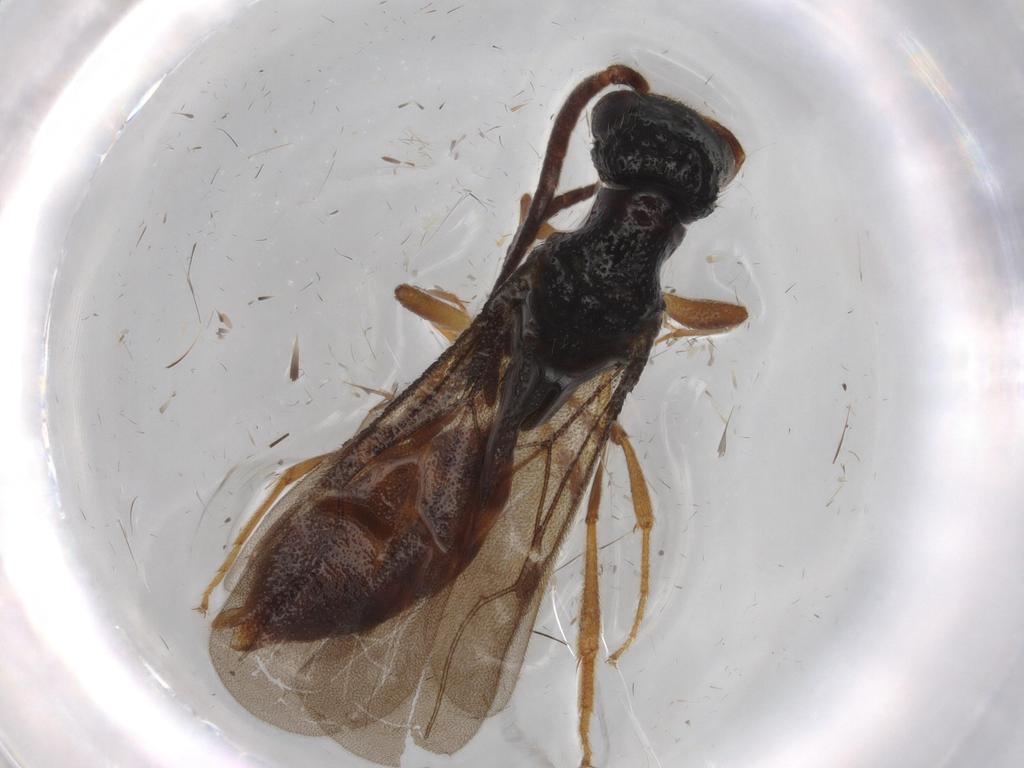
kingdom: Animalia
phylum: Arthropoda
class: Insecta
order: Hymenoptera
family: Bethylidae
